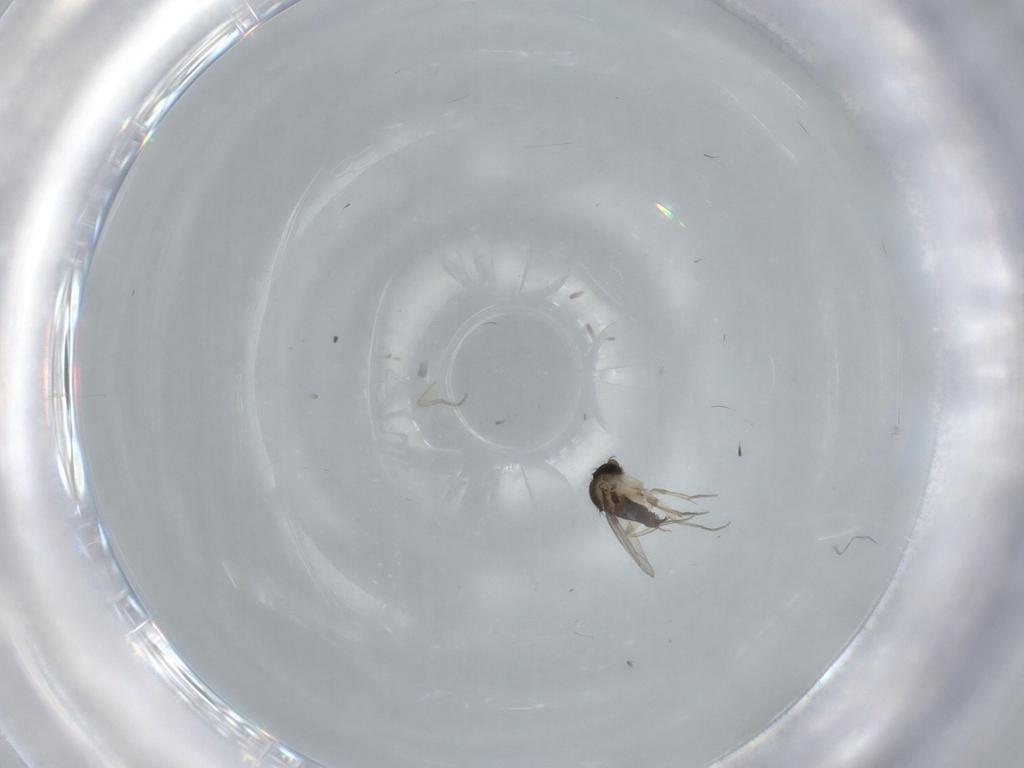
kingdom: Animalia
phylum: Arthropoda
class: Insecta
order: Diptera
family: Phoridae
